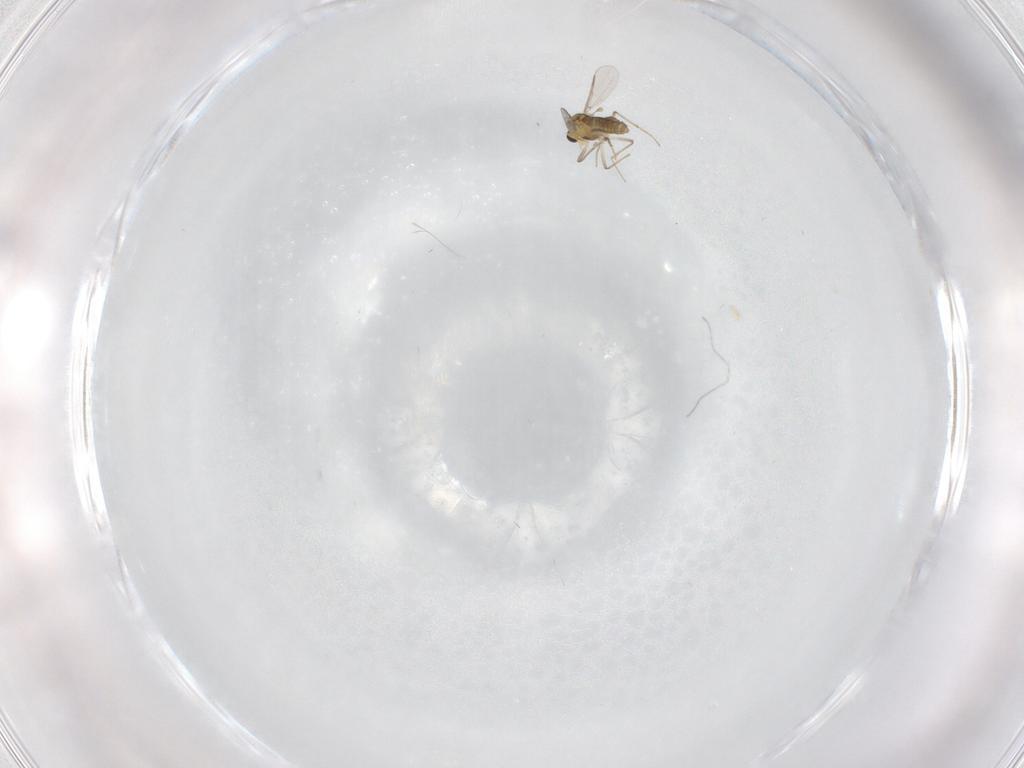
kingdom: Animalia
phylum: Arthropoda
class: Insecta
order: Diptera
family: Chironomidae
